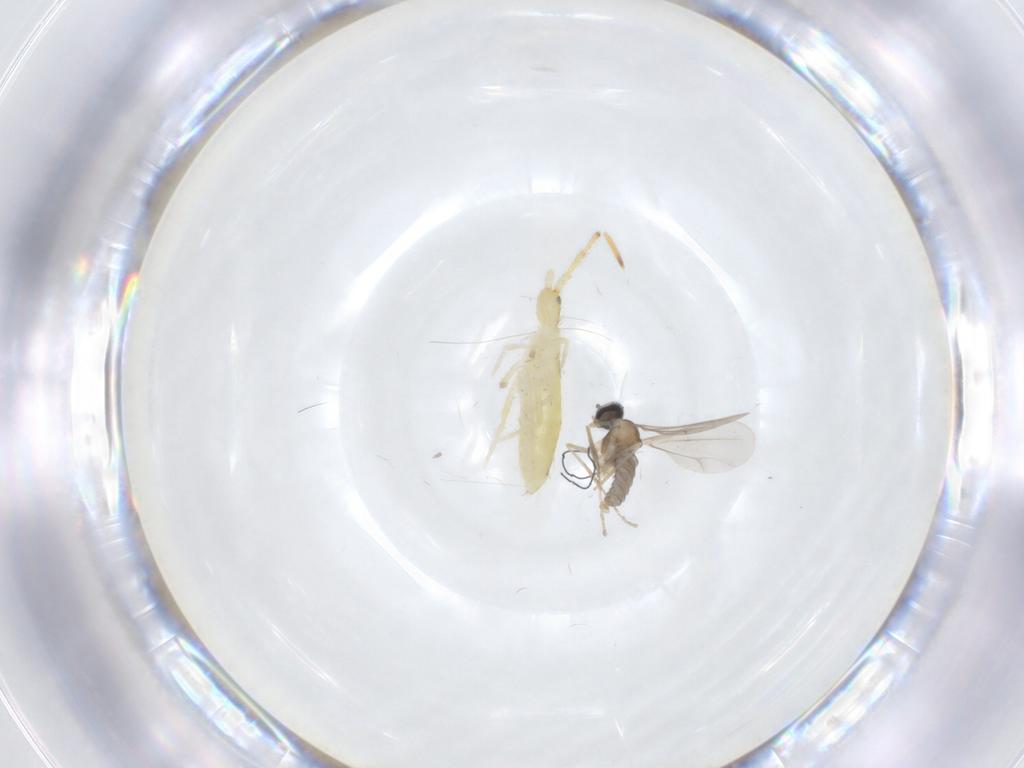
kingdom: Animalia
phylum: Arthropoda
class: Insecta
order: Diptera
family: Cecidomyiidae
